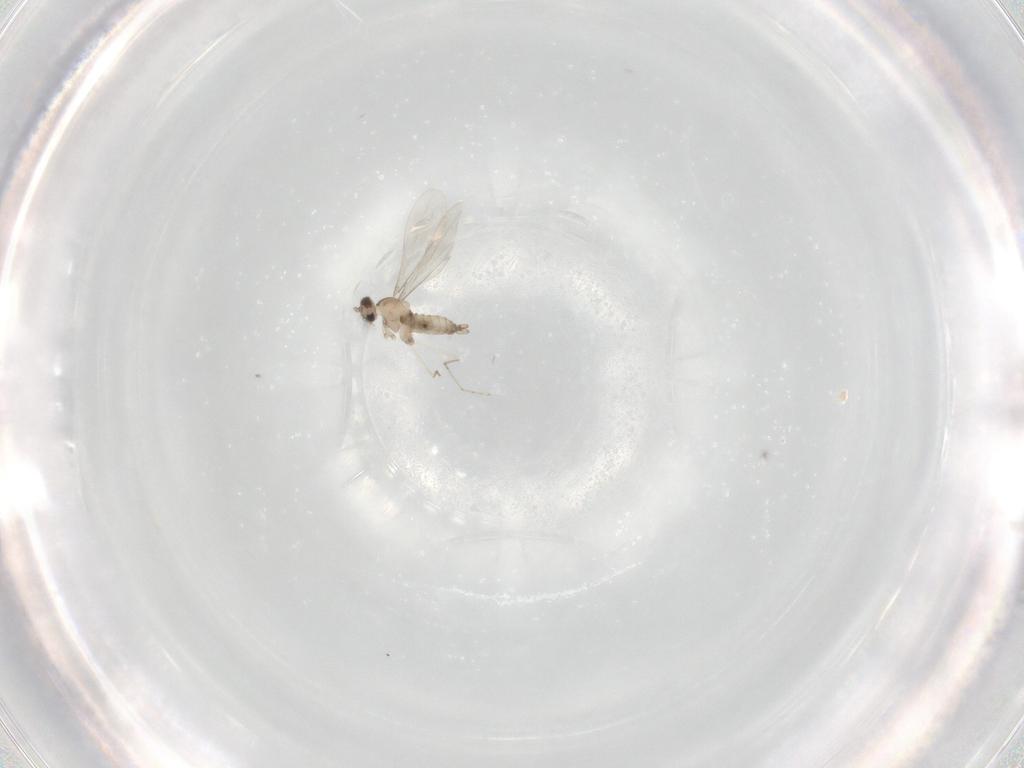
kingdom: Animalia
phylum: Arthropoda
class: Insecta
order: Diptera
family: Cecidomyiidae
